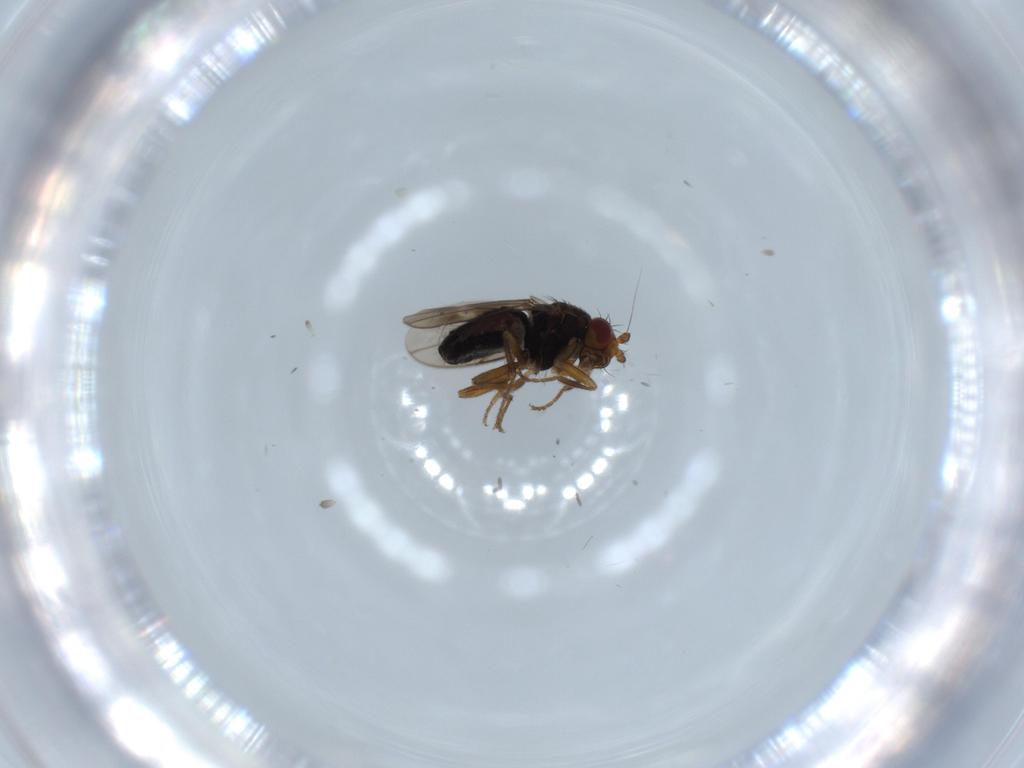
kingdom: Animalia
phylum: Arthropoda
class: Insecta
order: Diptera
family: Sphaeroceridae
